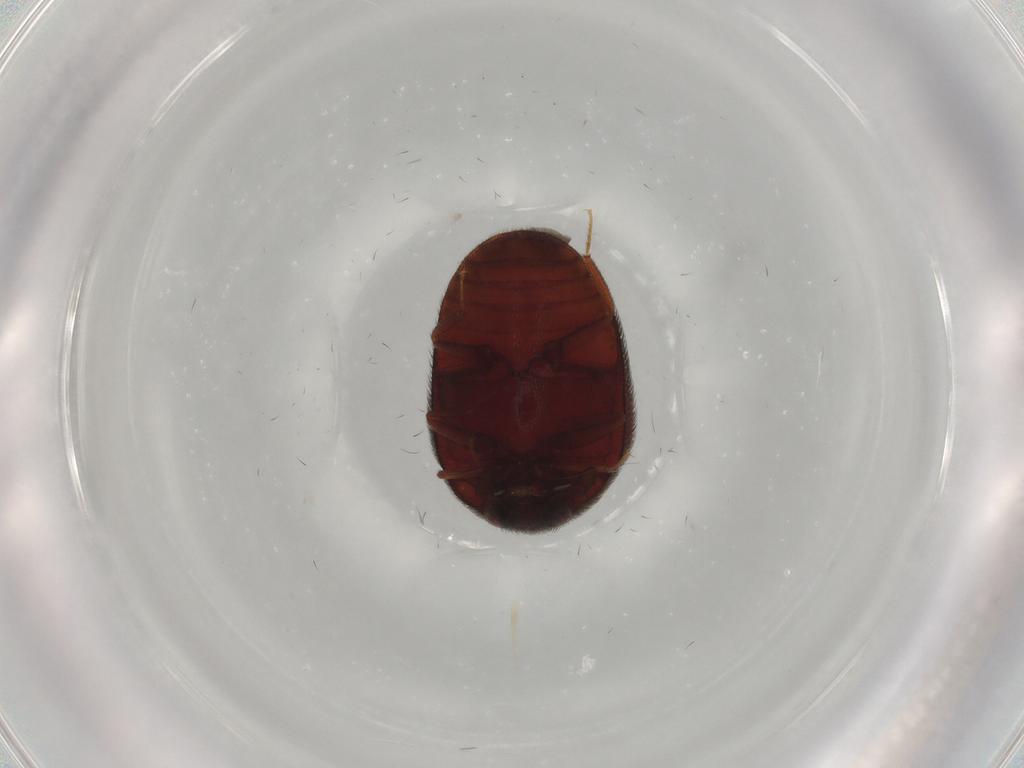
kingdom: Animalia
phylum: Arthropoda
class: Insecta
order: Coleoptera
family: Dermestidae
